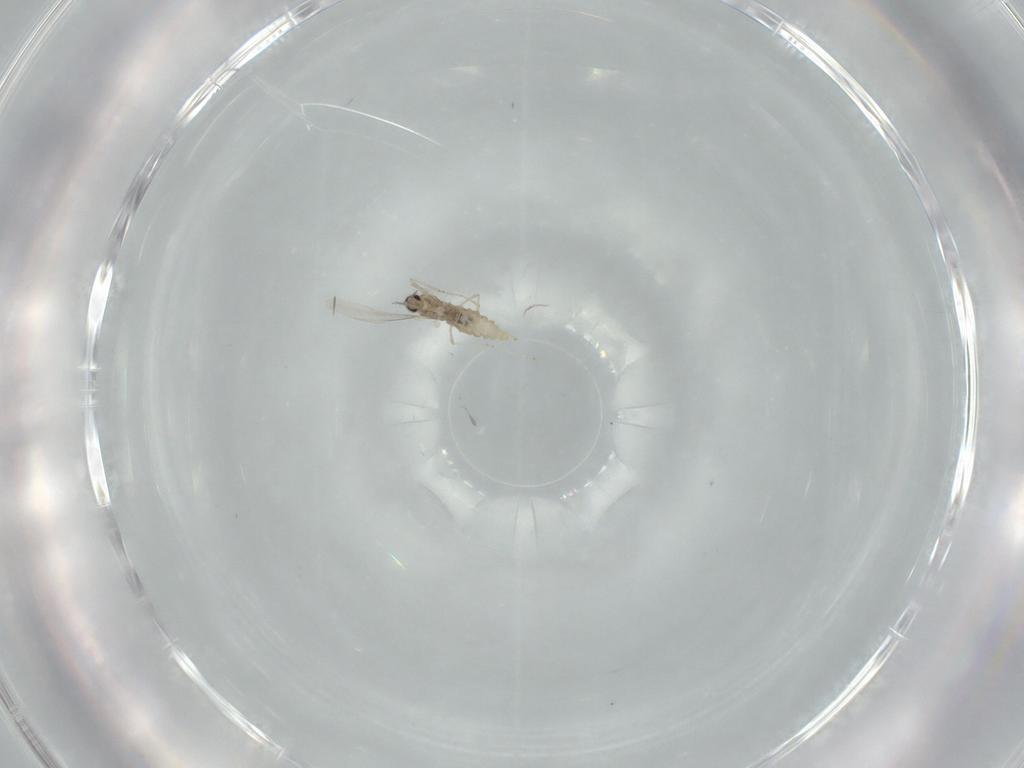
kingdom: Animalia
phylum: Arthropoda
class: Insecta
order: Diptera
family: Cecidomyiidae
